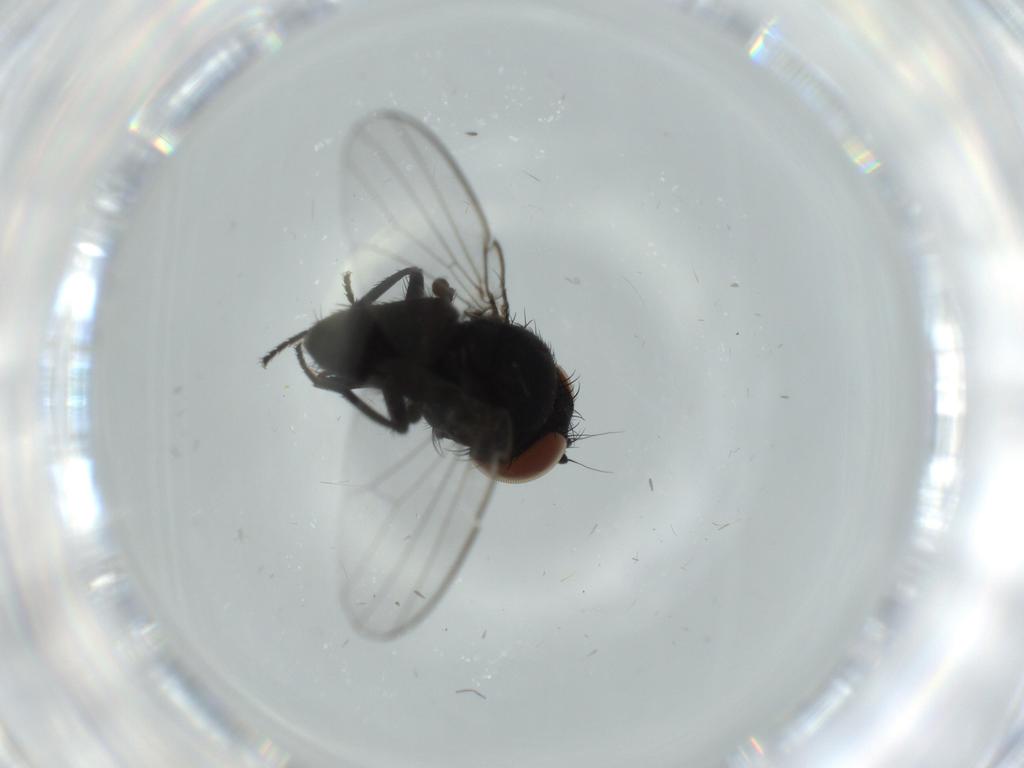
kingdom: Animalia
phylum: Arthropoda
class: Insecta
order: Diptera
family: Milichiidae
